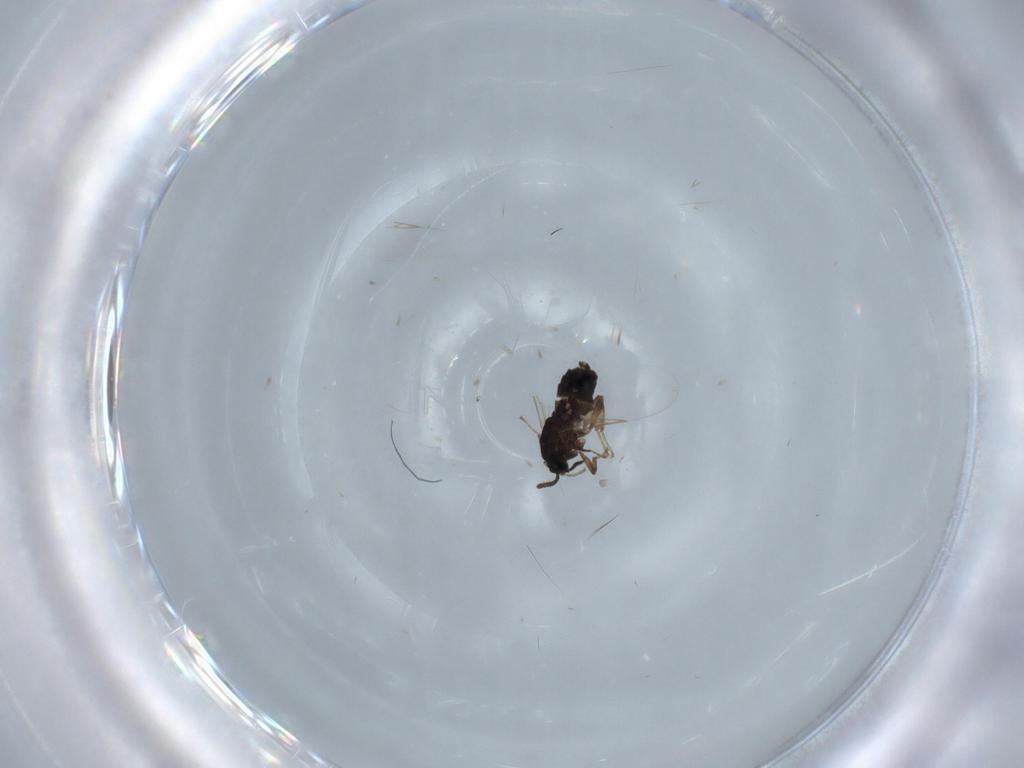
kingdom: Animalia
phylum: Arthropoda
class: Insecta
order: Diptera
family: Scatopsidae
